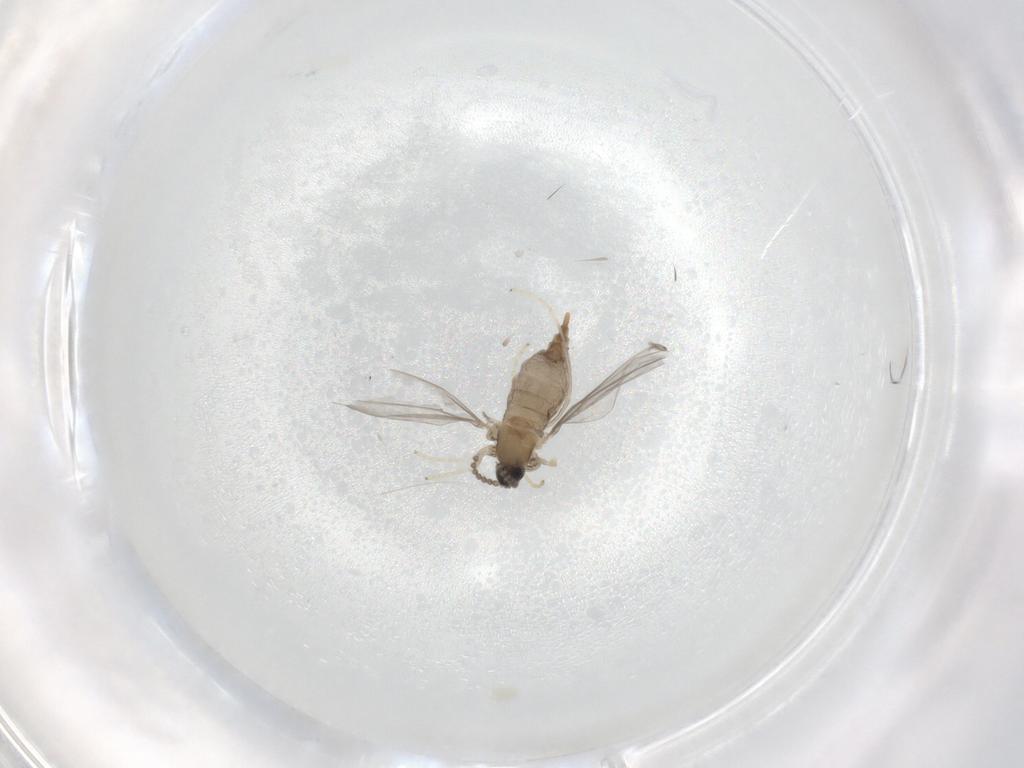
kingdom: Animalia
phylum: Arthropoda
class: Insecta
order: Diptera
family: Cecidomyiidae
